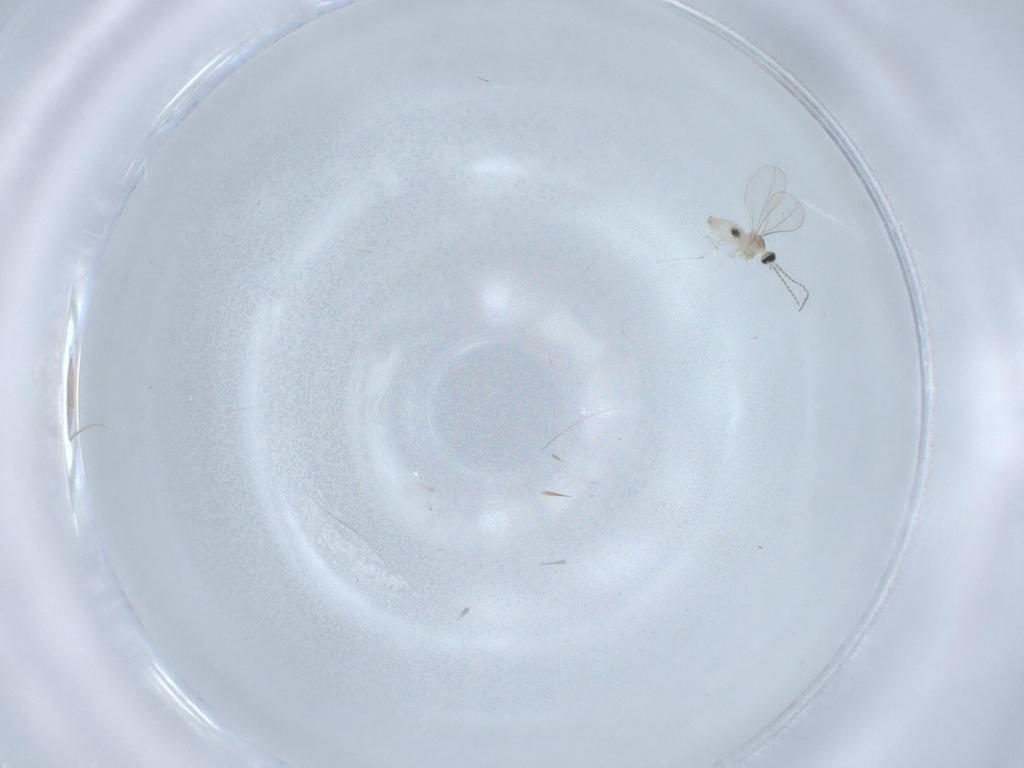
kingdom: Animalia
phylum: Arthropoda
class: Insecta
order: Diptera
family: Cecidomyiidae
